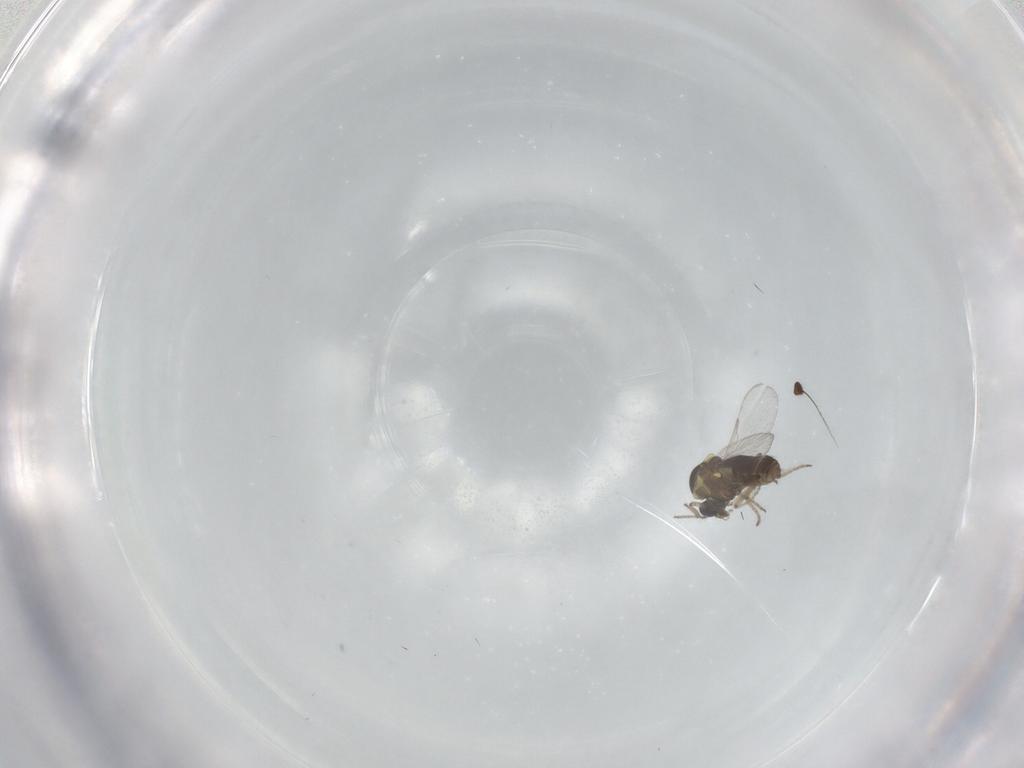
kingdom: Animalia
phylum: Arthropoda
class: Insecta
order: Diptera
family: Ceratopogonidae
